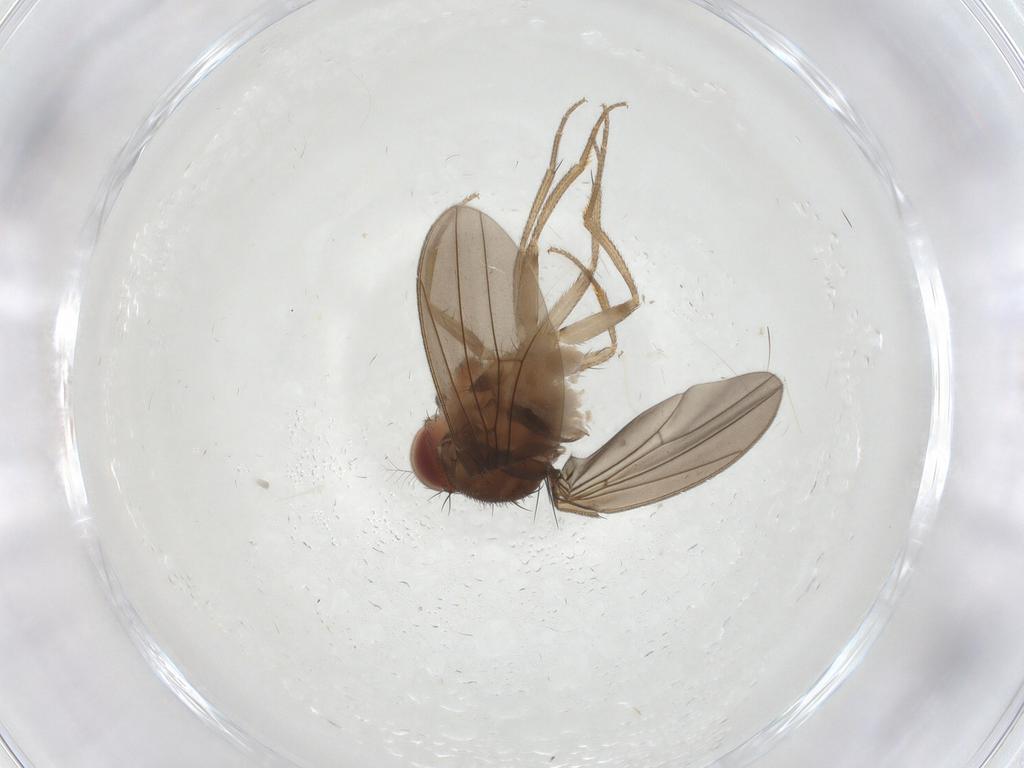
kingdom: Animalia
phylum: Arthropoda
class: Insecta
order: Diptera
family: Drosophilidae
